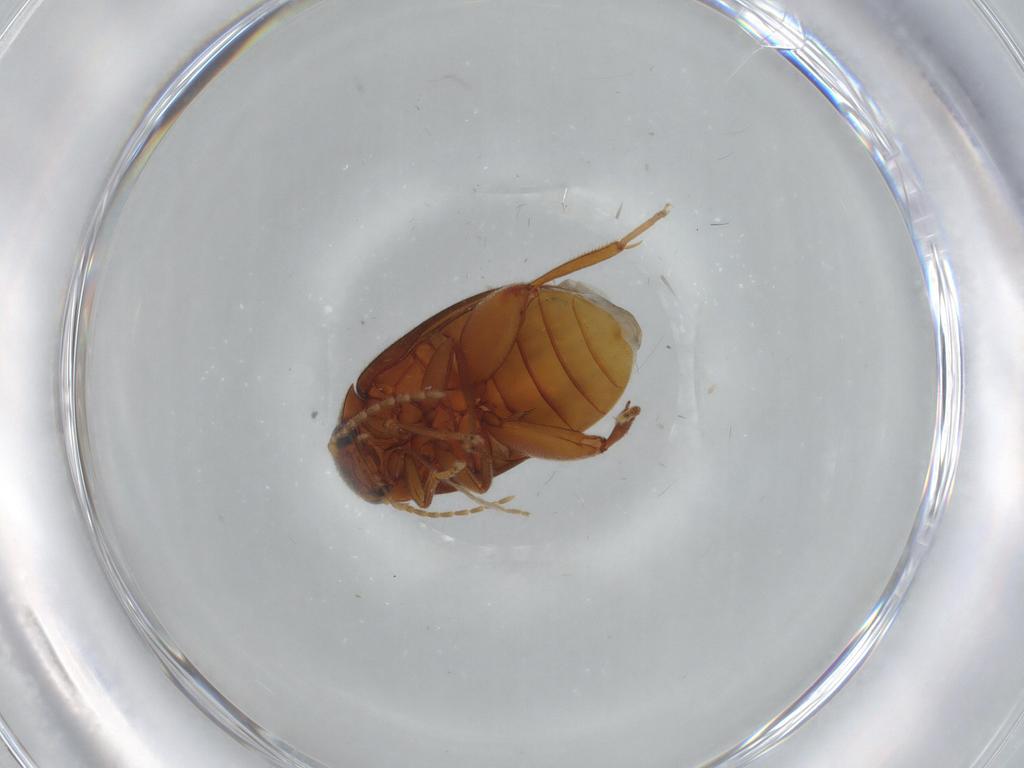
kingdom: Animalia
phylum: Arthropoda
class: Insecta
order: Coleoptera
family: Scirtidae
